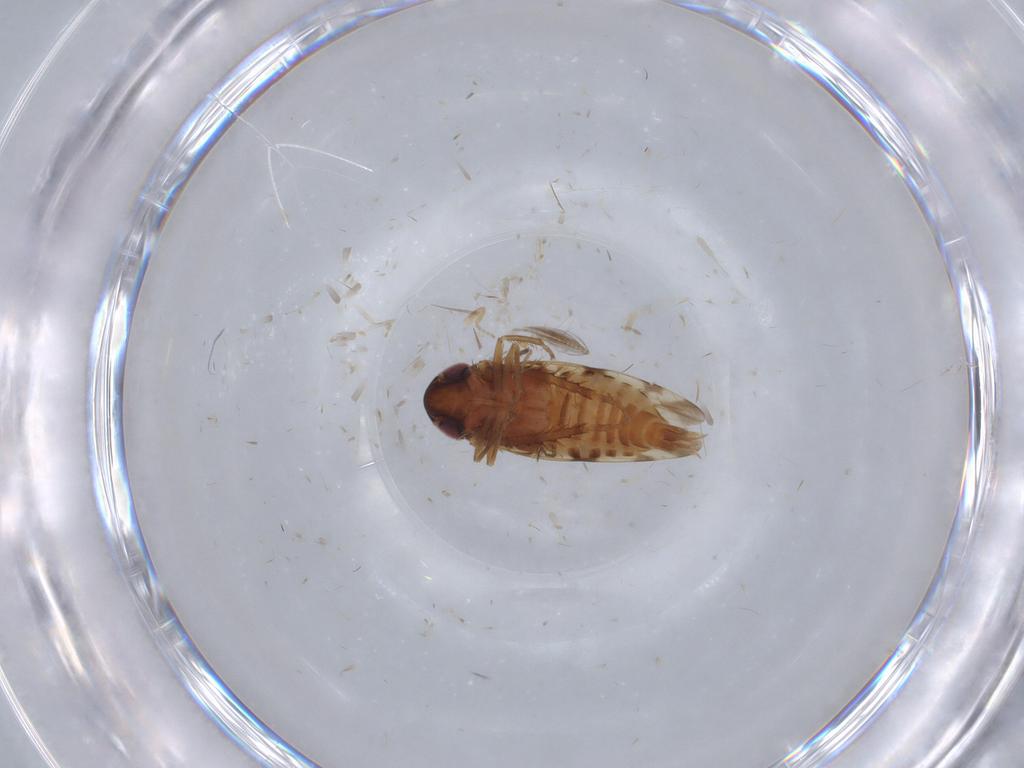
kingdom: Animalia
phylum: Arthropoda
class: Insecta
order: Hemiptera
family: Cicadellidae
